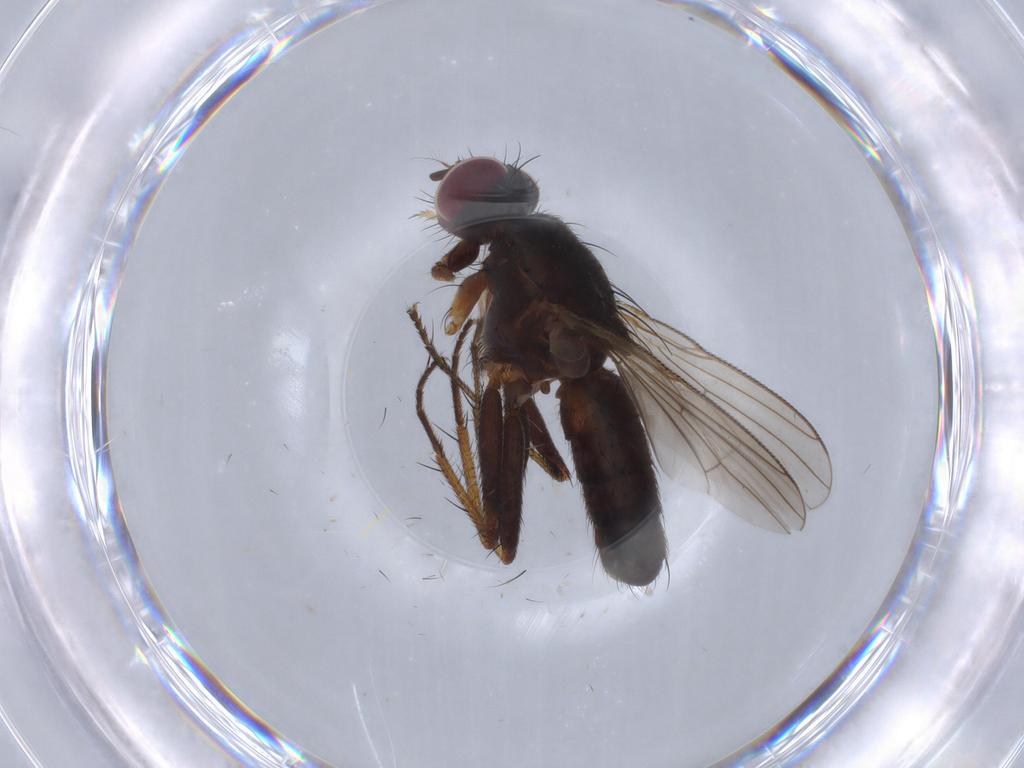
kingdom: Animalia
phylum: Arthropoda
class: Insecta
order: Diptera
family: Muscidae
